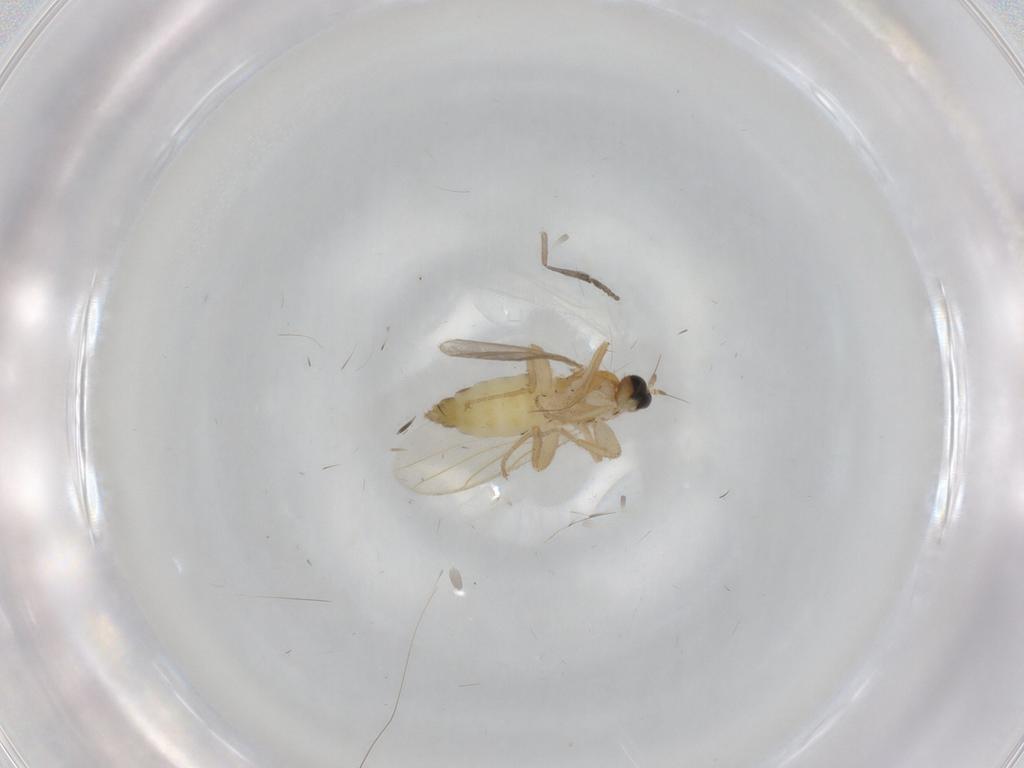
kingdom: Animalia
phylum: Arthropoda
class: Insecta
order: Diptera
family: Hybotidae
